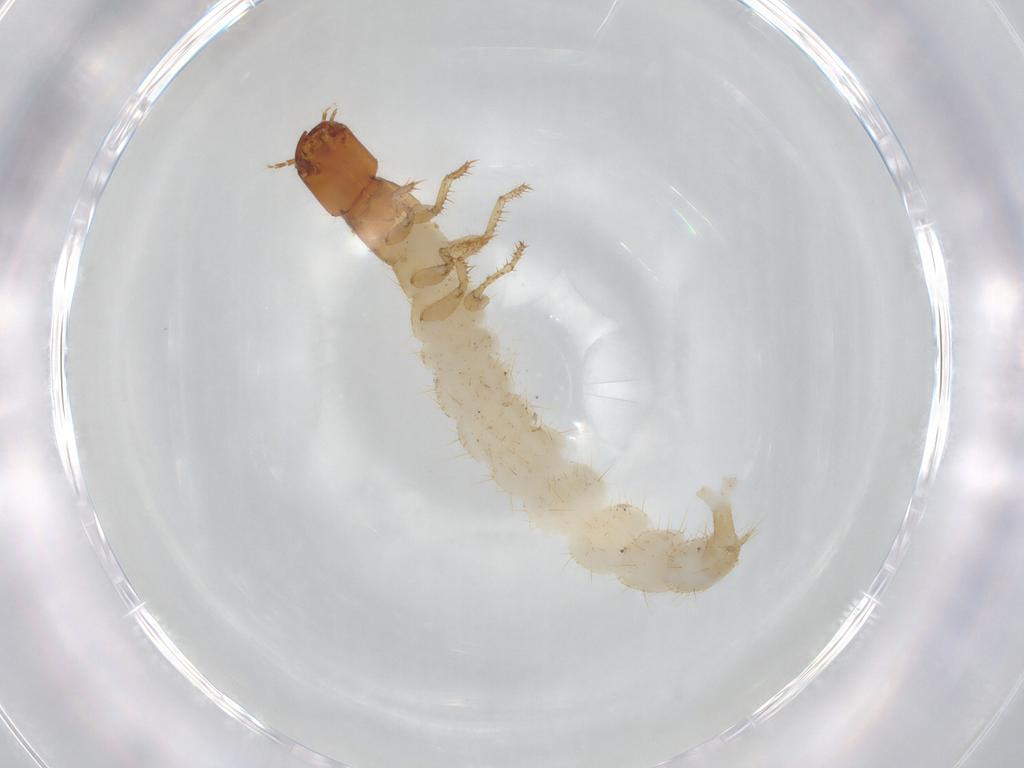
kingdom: Animalia
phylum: Arthropoda
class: Insecta
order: Coleoptera
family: Staphylinidae
